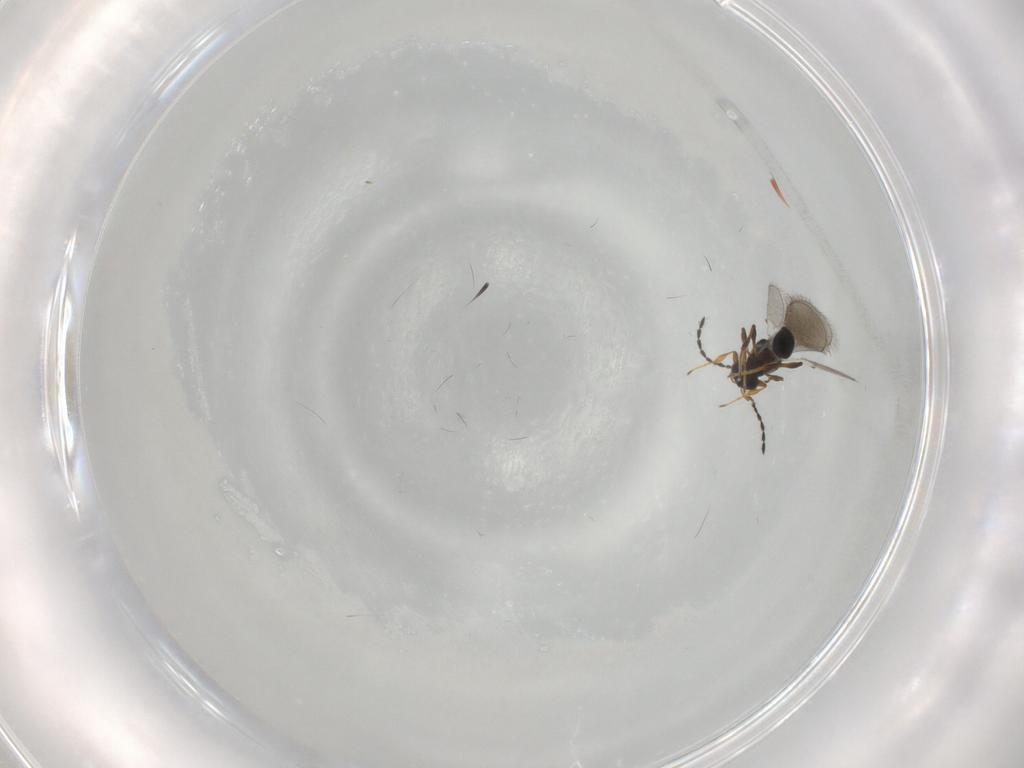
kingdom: Animalia
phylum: Arthropoda
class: Insecta
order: Hymenoptera
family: Platygastridae
